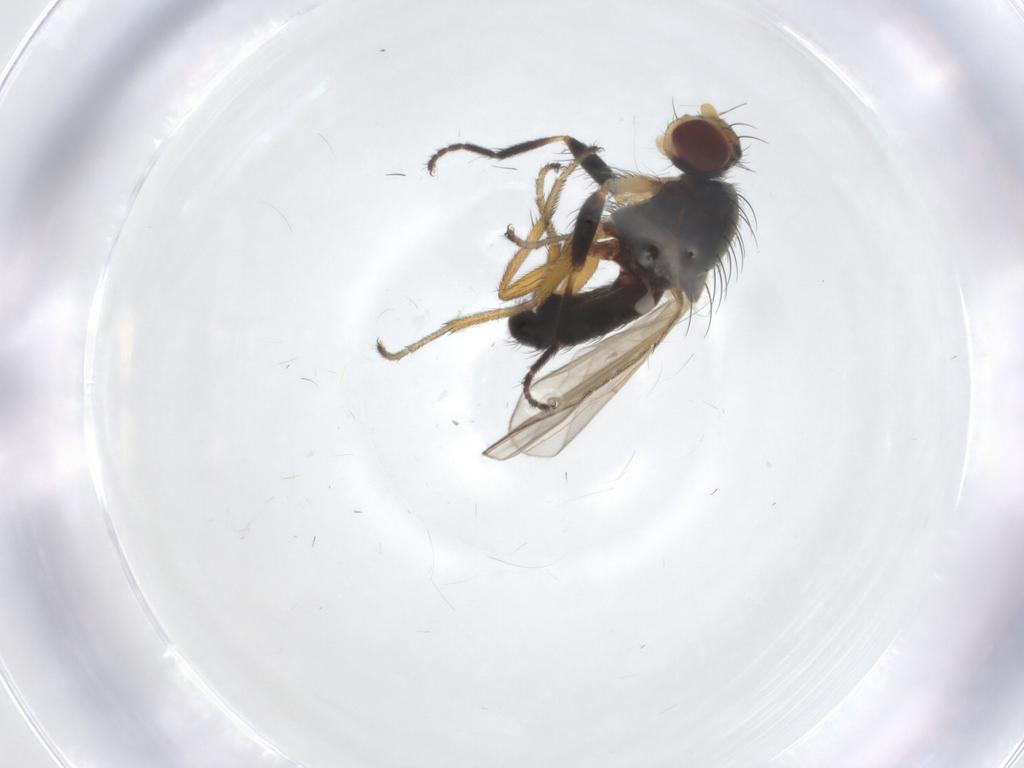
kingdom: Animalia
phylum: Arthropoda
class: Insecta
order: Diptera
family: Heleomyzidae
